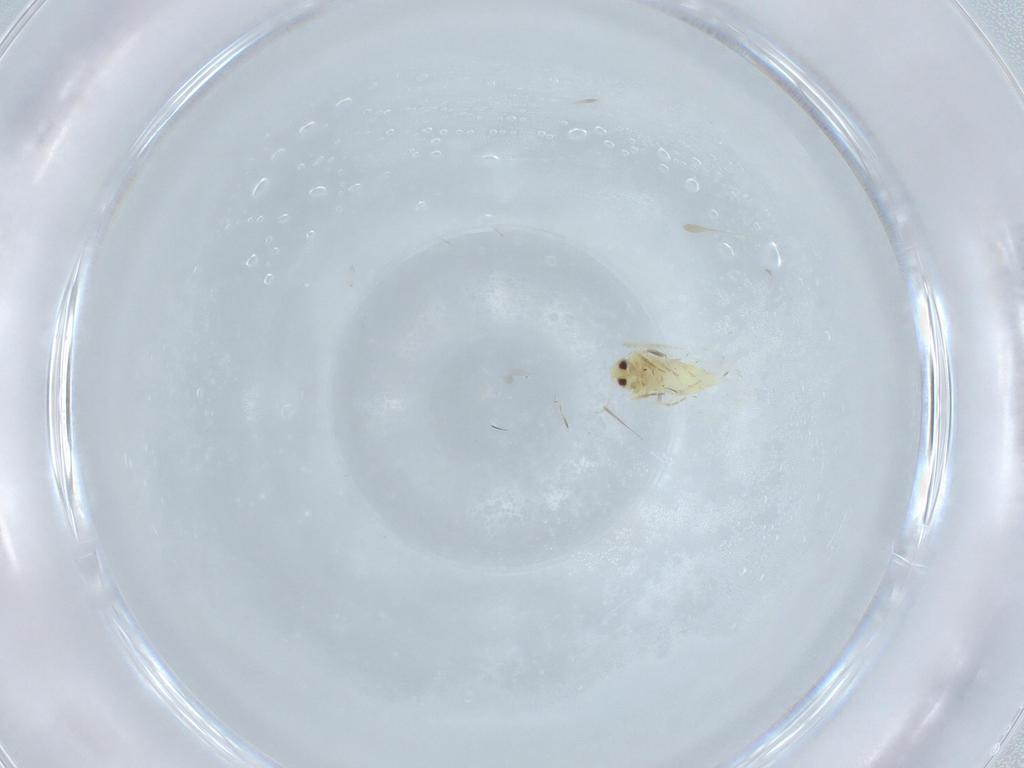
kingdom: Animalia
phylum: Arthropoda
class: Insecta
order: Hemiptera
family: Aleyrodidae
